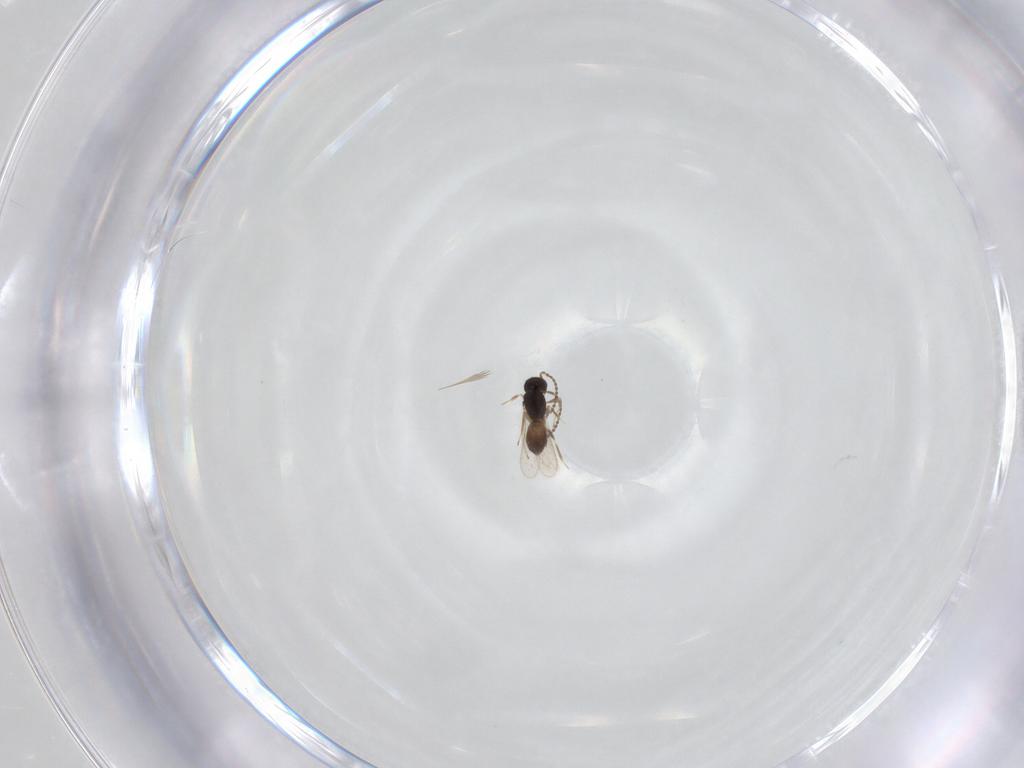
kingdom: Animalia
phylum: Arthropoda
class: Insecta
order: Hymenoptera
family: Scelionidae
